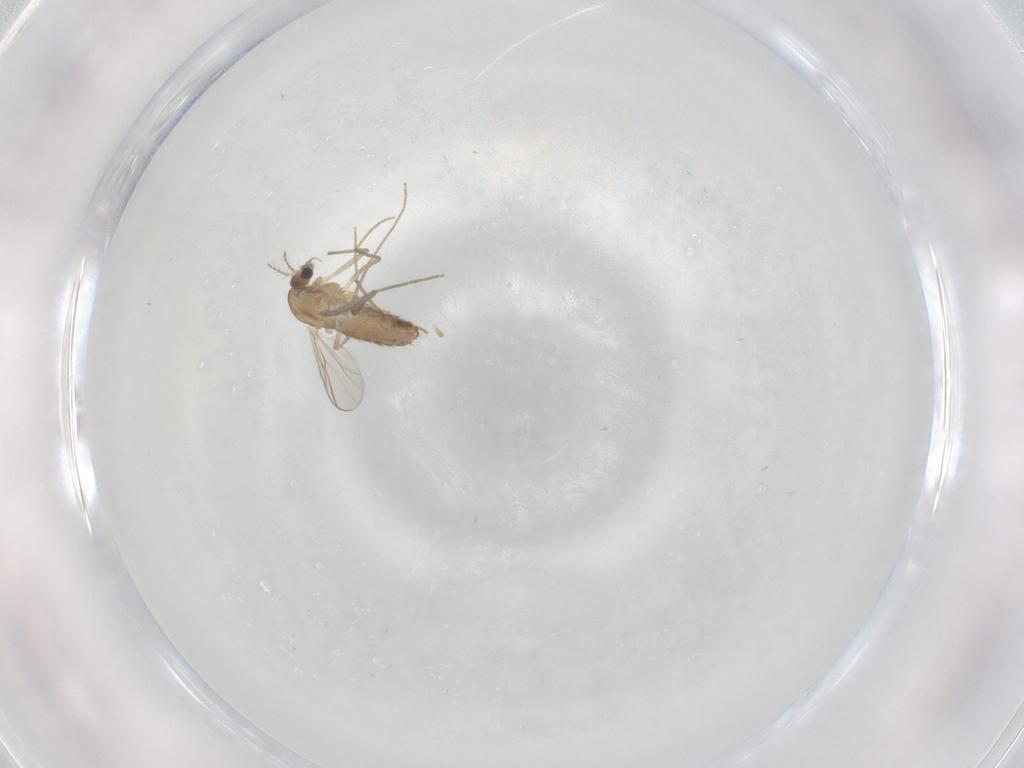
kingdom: Animalia
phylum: Arthropoda
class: Insecta
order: Diptera
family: Chironomidae
